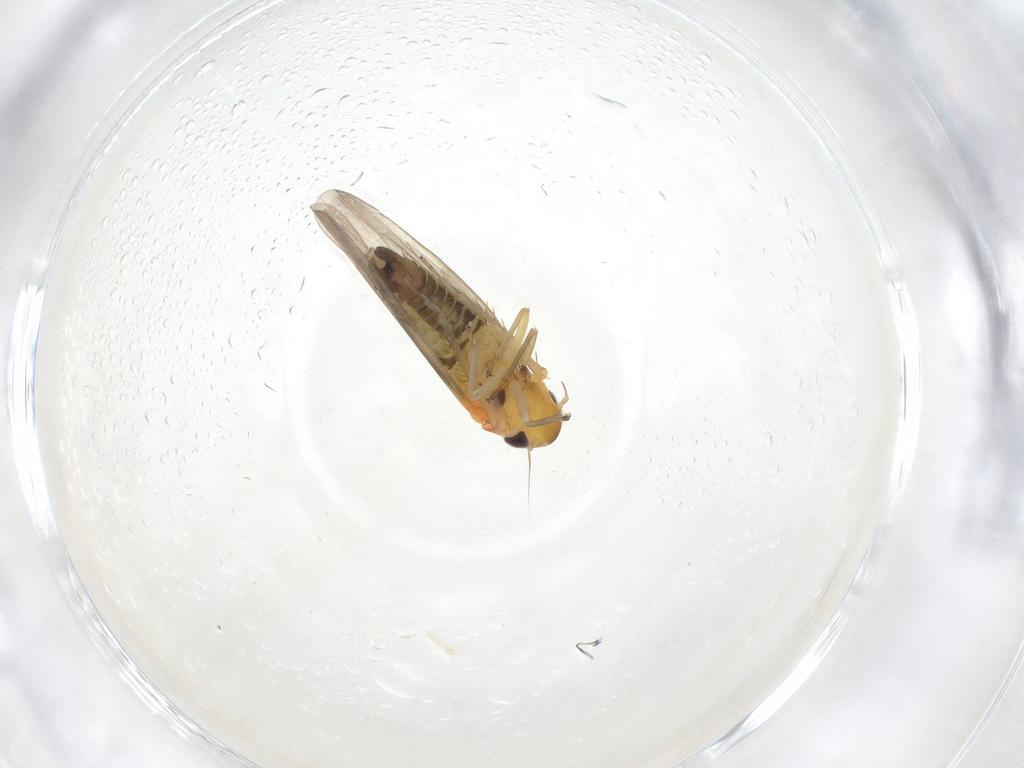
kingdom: Animalia
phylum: Arthropoda
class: Insecta
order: Hemiptera
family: Cicadellidae
